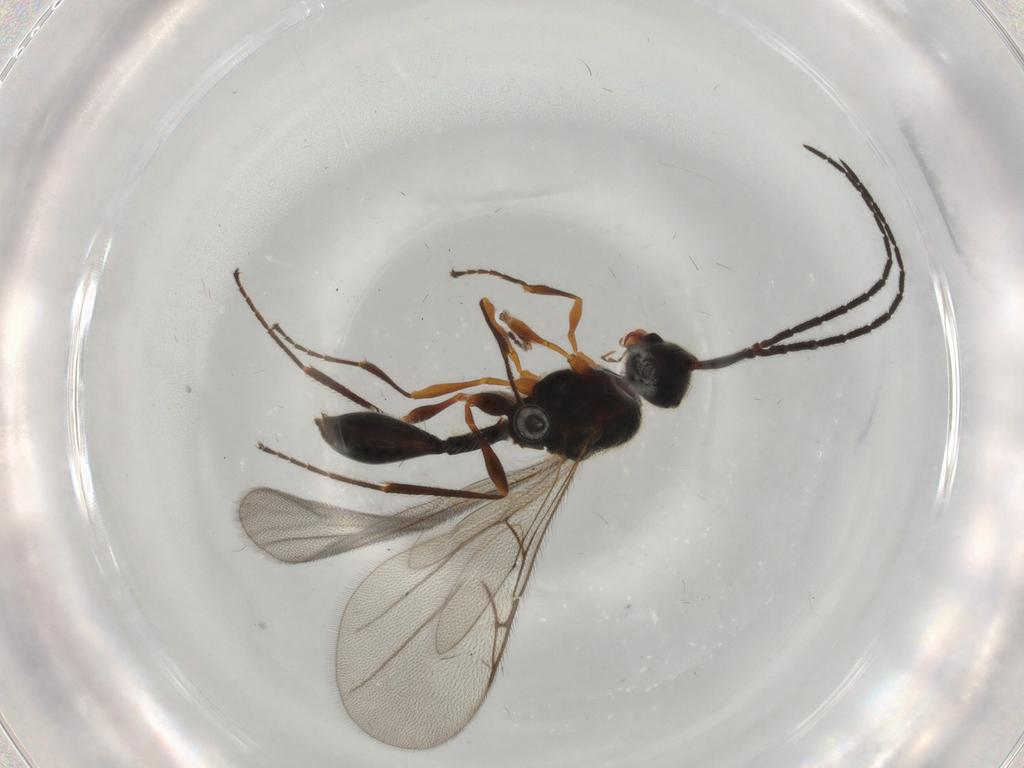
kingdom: Animalia
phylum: Arthropoda
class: Insecta
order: Hymenoptera
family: Diapriidae
